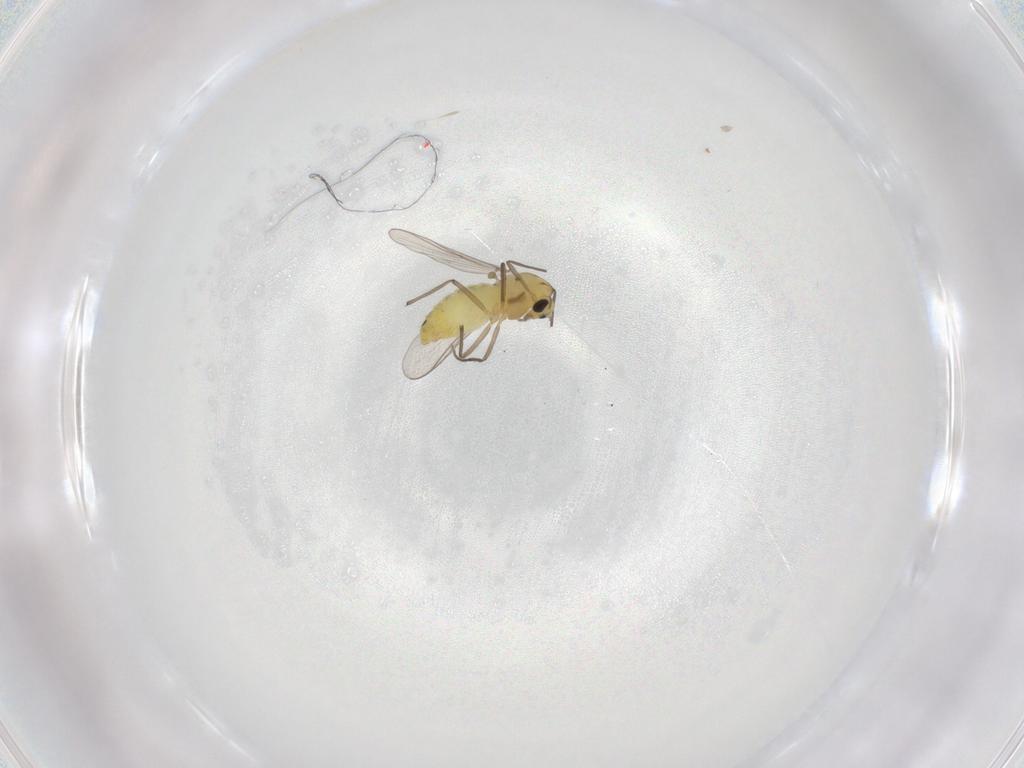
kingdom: Animalia
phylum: Arthropoda
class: Insecta
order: Diptera
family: Chironomidae
